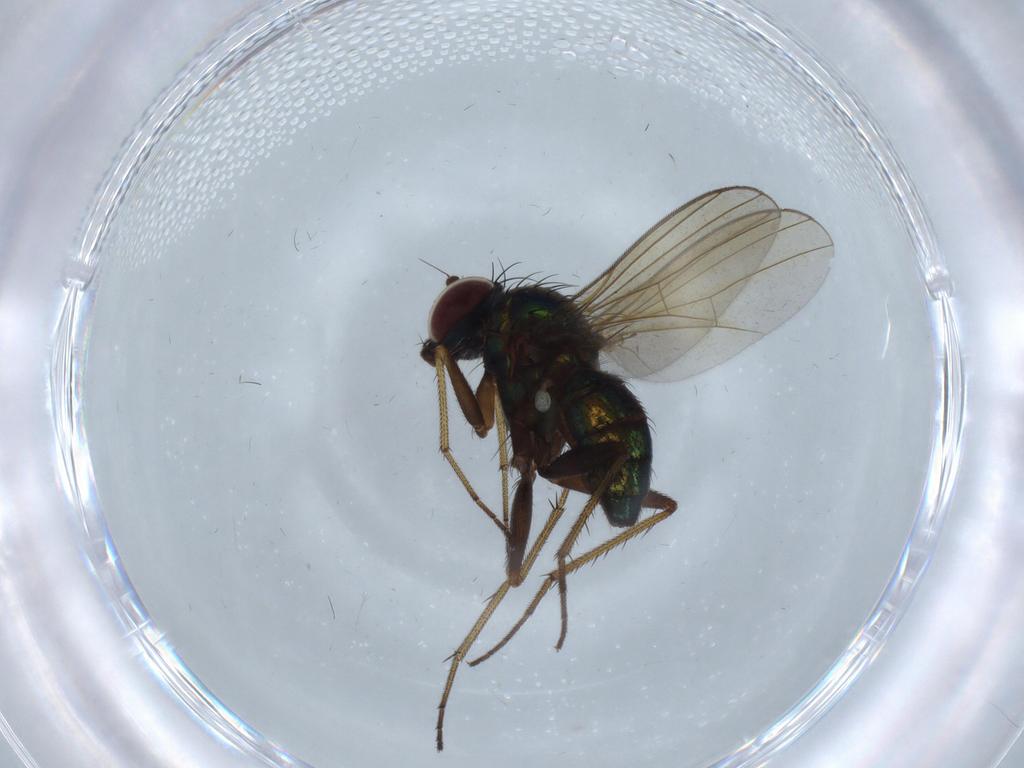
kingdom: Animalia
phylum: Arthropoda
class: Insecta
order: Diptera
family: Dolichopodidae
